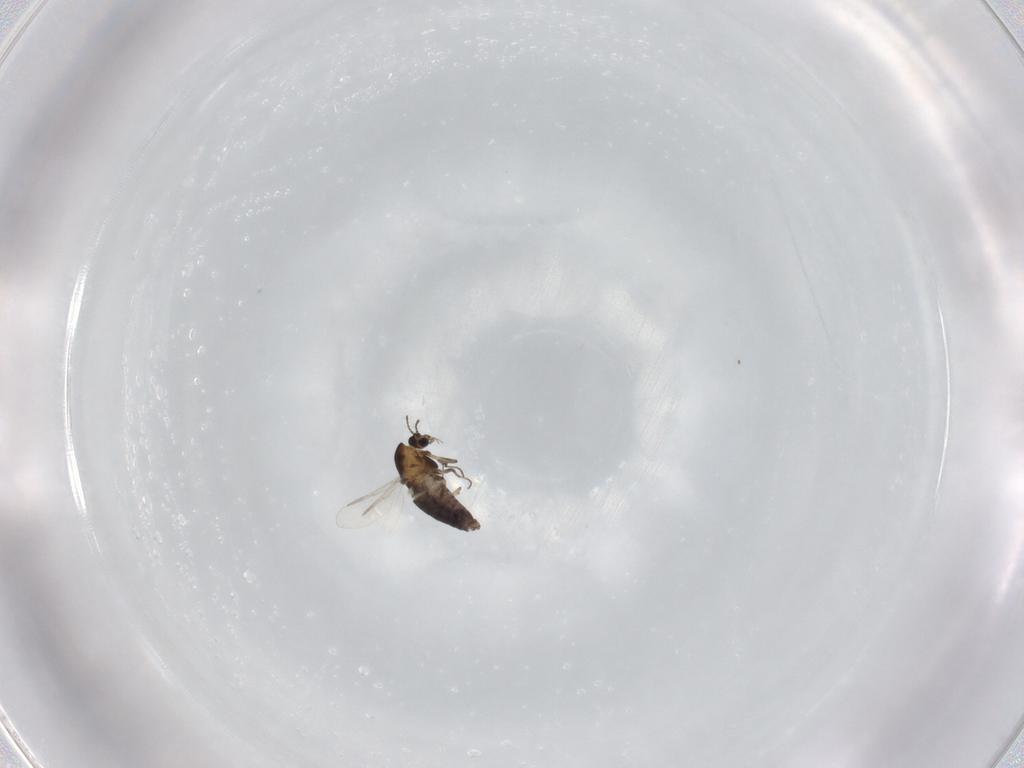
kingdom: Animalia
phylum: Arthropoda
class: Insecta
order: Diptera
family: Chironomidae
